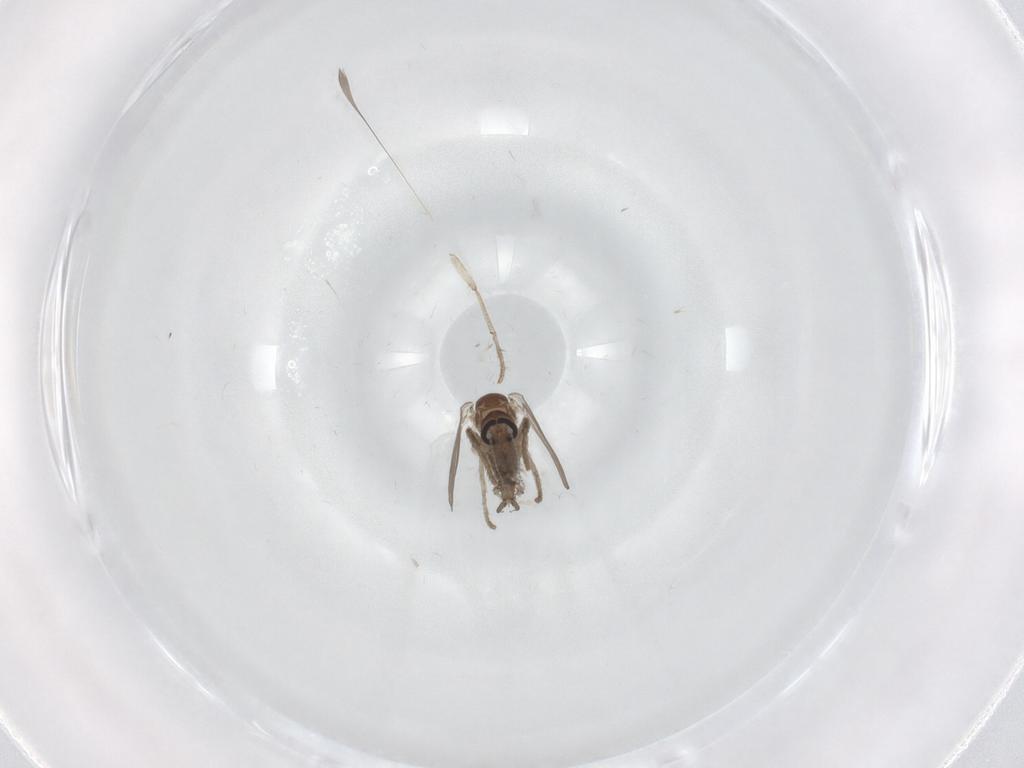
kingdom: Animalia
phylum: Arthropoda
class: Insecta
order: Diptera
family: Psychodidae
